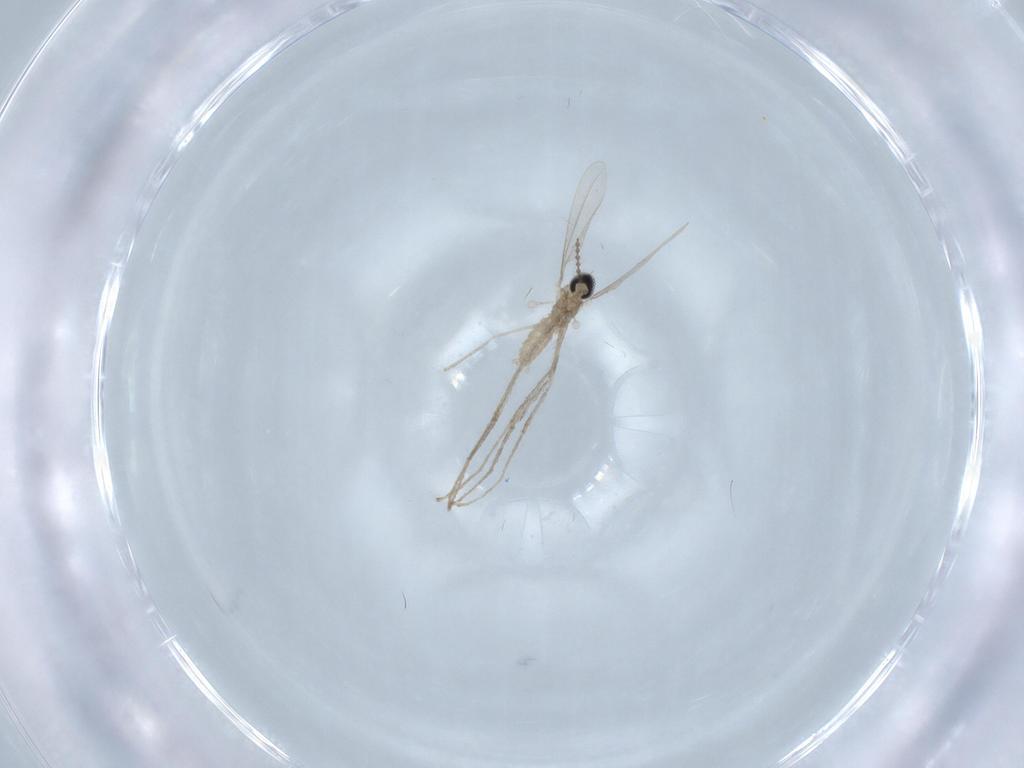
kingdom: Animalia
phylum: Arthropoda
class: Insecta
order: Diptera
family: Cecidomyiidae
